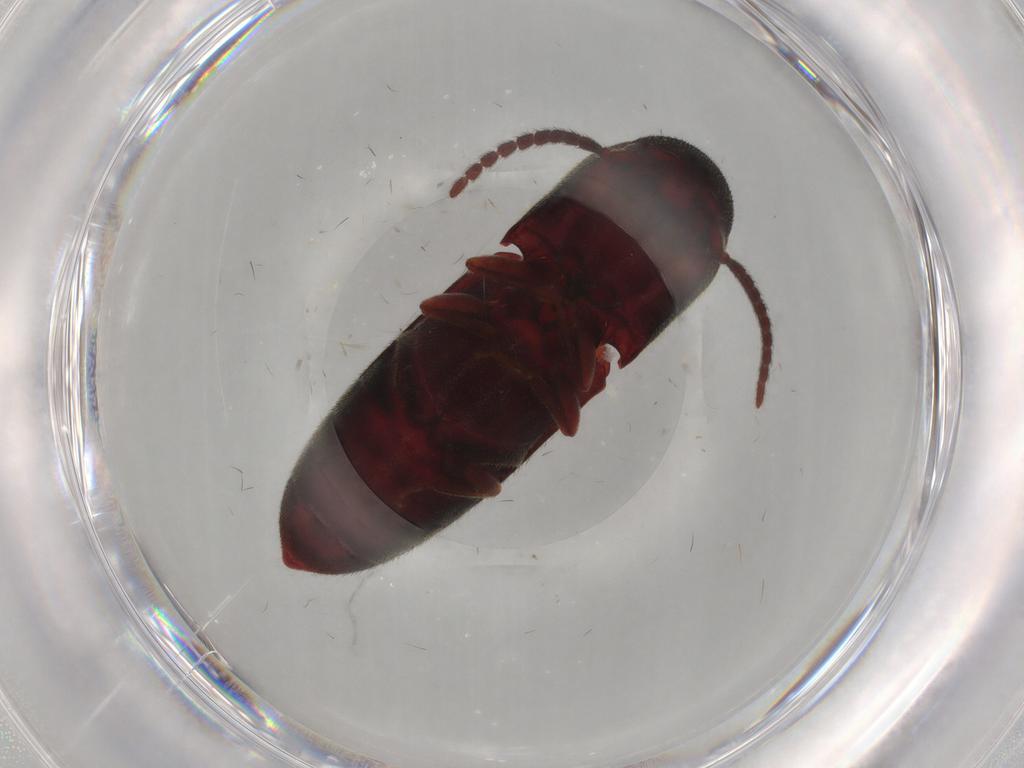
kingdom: Animalia
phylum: Arthropoda
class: Insecta
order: Coleoptera
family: Eucnemidae
